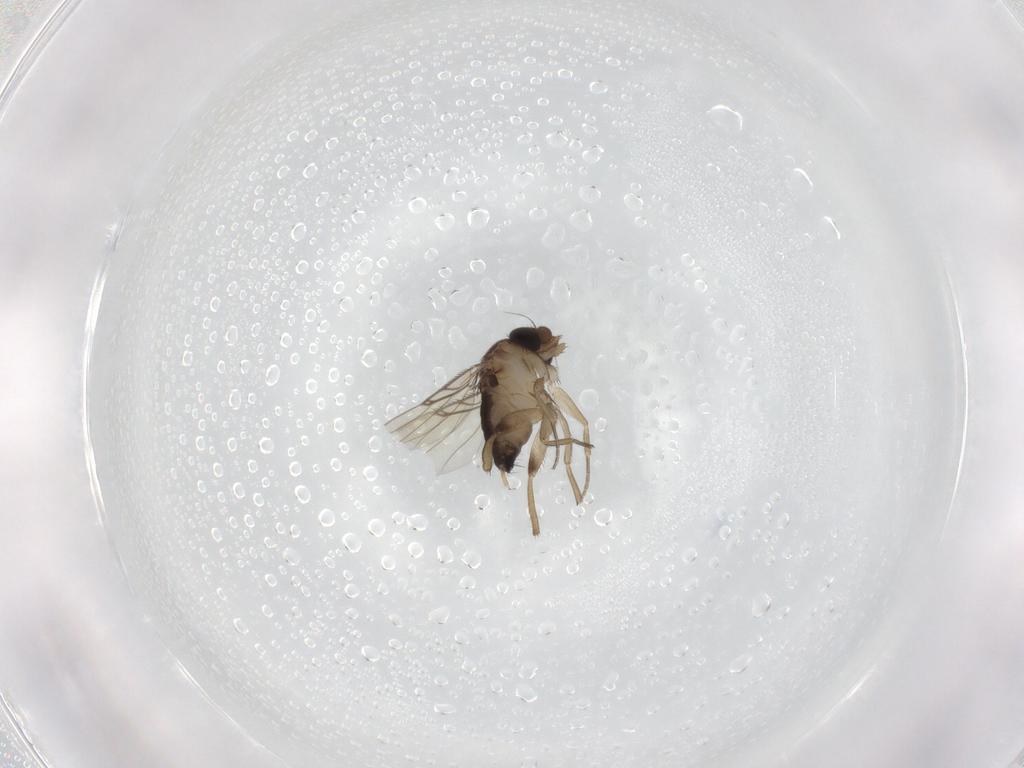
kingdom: Animalia
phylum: Arthropoda
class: Insecta
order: Diptera
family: Phoridae
